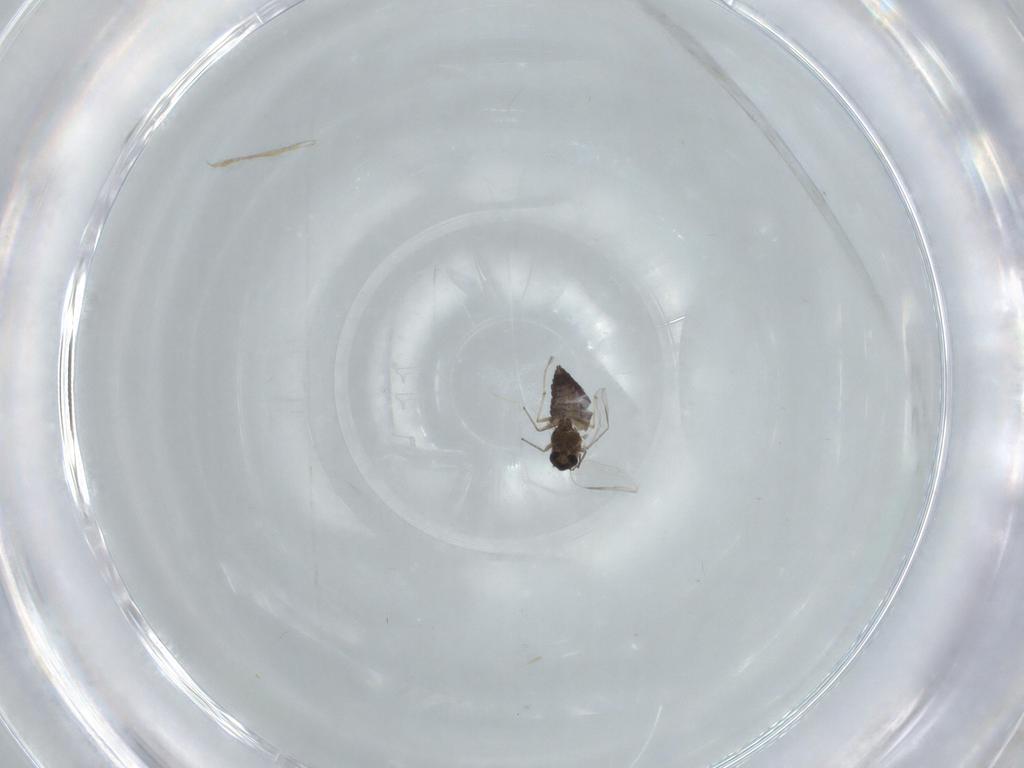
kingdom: Animalia
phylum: Arthropoda
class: Insecta
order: Diptera
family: Chironomidae
